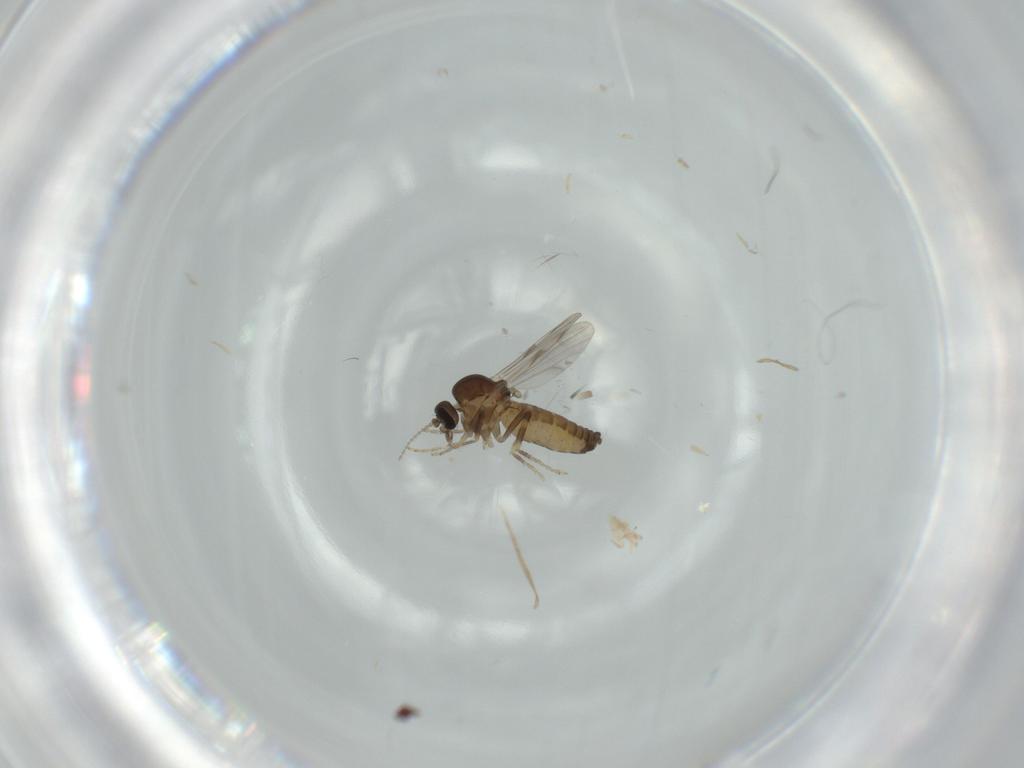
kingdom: Animalia
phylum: Arthropoda
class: Insecta
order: Diptera
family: Ceratopogonidae
